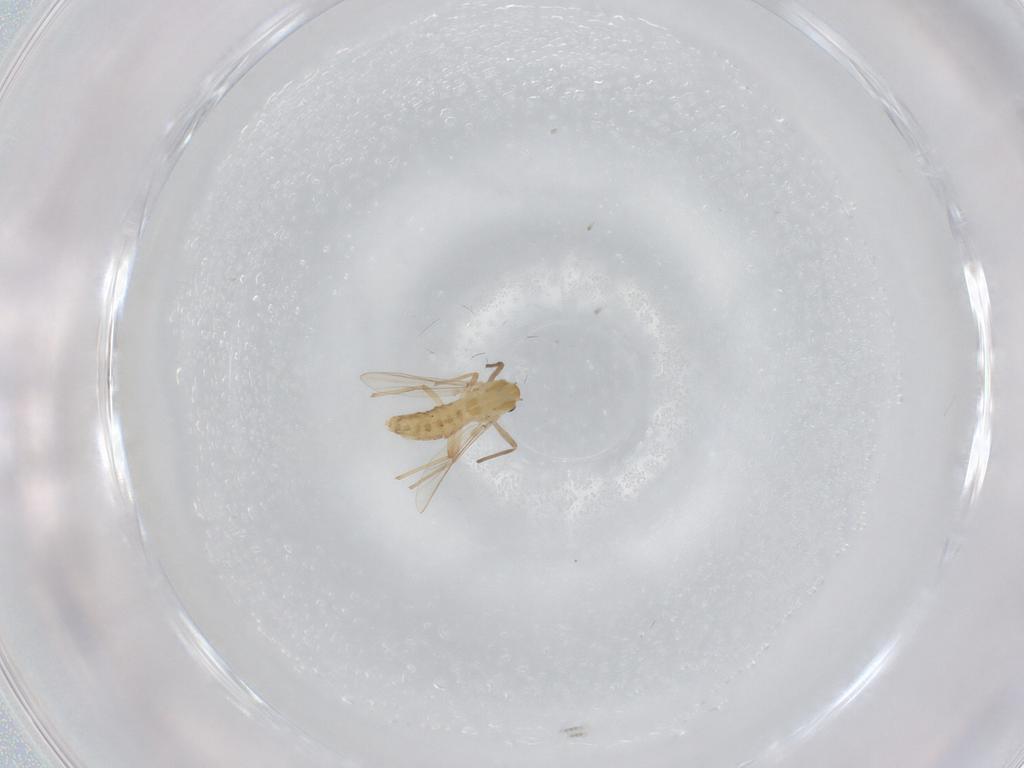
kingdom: Animalia
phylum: Arthropoda
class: Insecta
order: Diptera
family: Chironomidae
